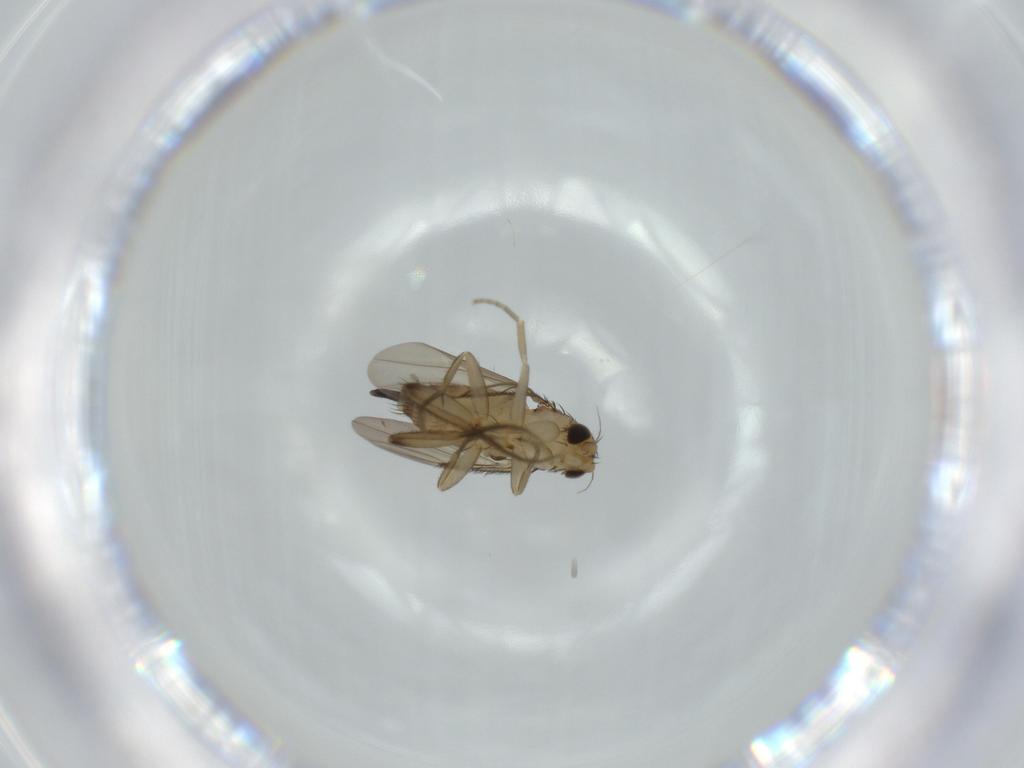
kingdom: Animalia
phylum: Arthropoda
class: Insecta
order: Diptera
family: Phoridae
